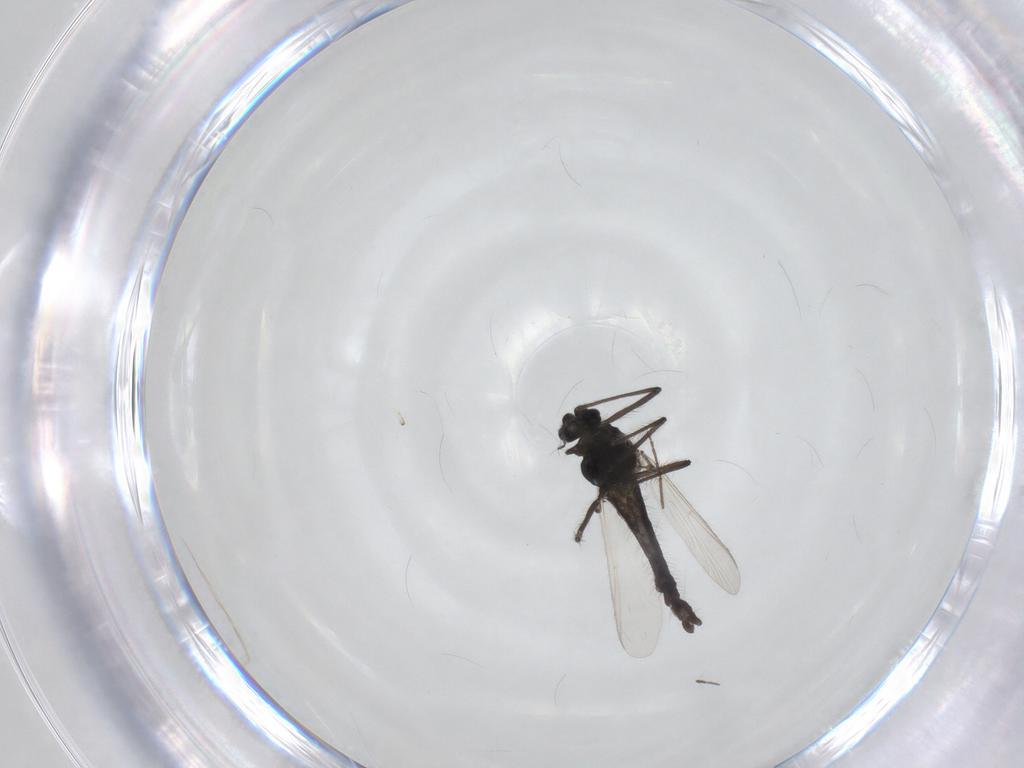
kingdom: Animalia
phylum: Arthropoda
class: Insecta
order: Diptera
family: Chironomidae
